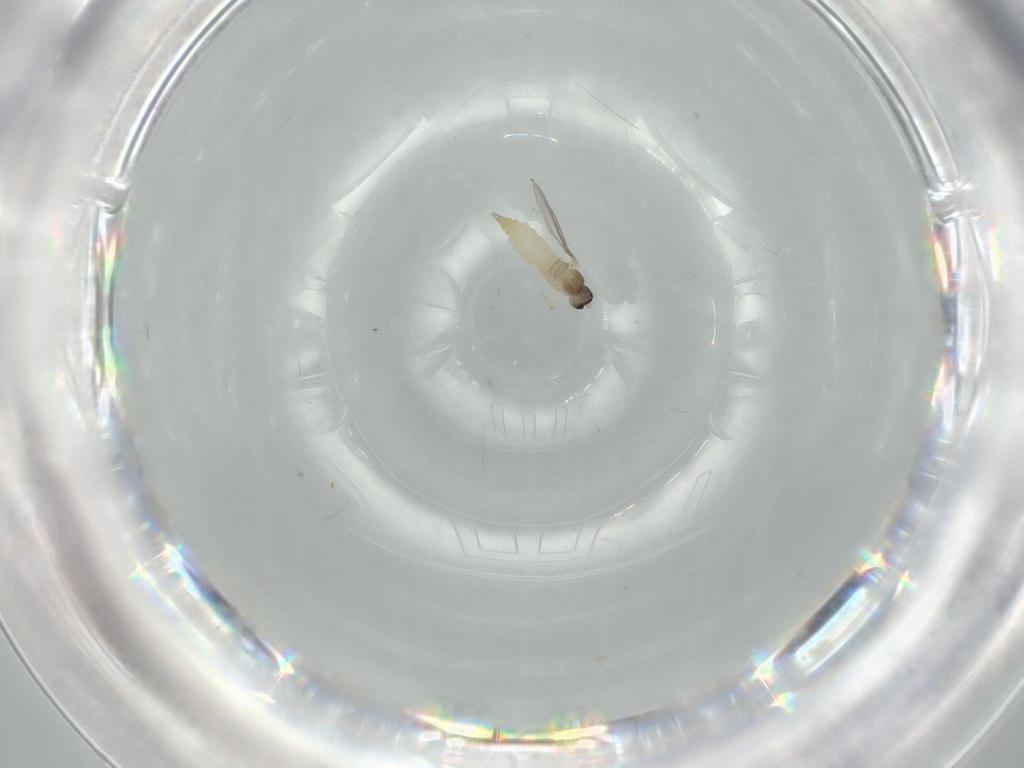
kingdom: Animalia
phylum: Arthropoda
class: Insecta
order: Diptera
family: Chironomidae
